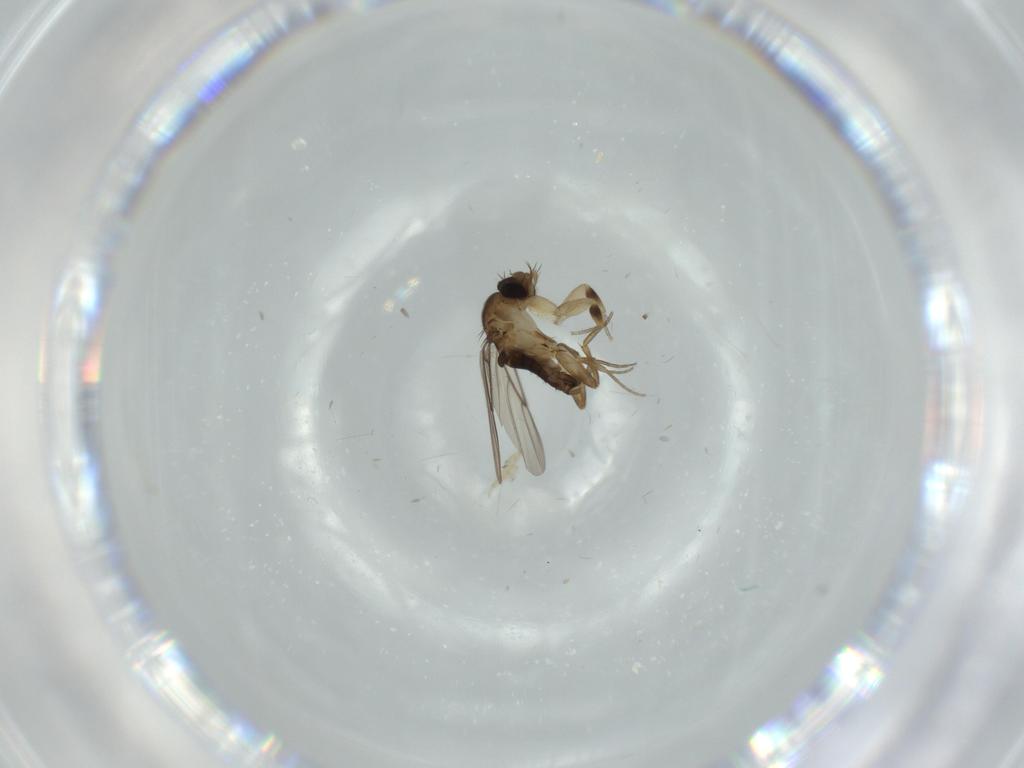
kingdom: Animalia
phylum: Arthropoda
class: Insecta
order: Diptera
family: Phoridae
